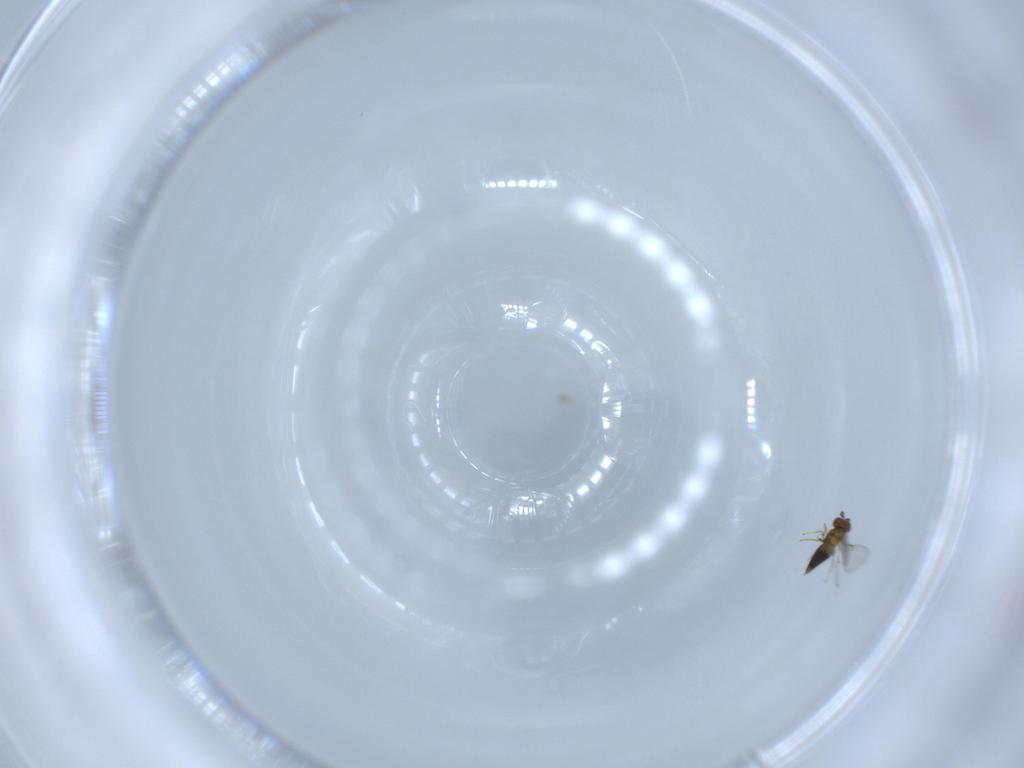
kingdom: Animalia
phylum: Arthropoda
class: Insecta
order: Hymenoptera
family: Trichogrammatidae
